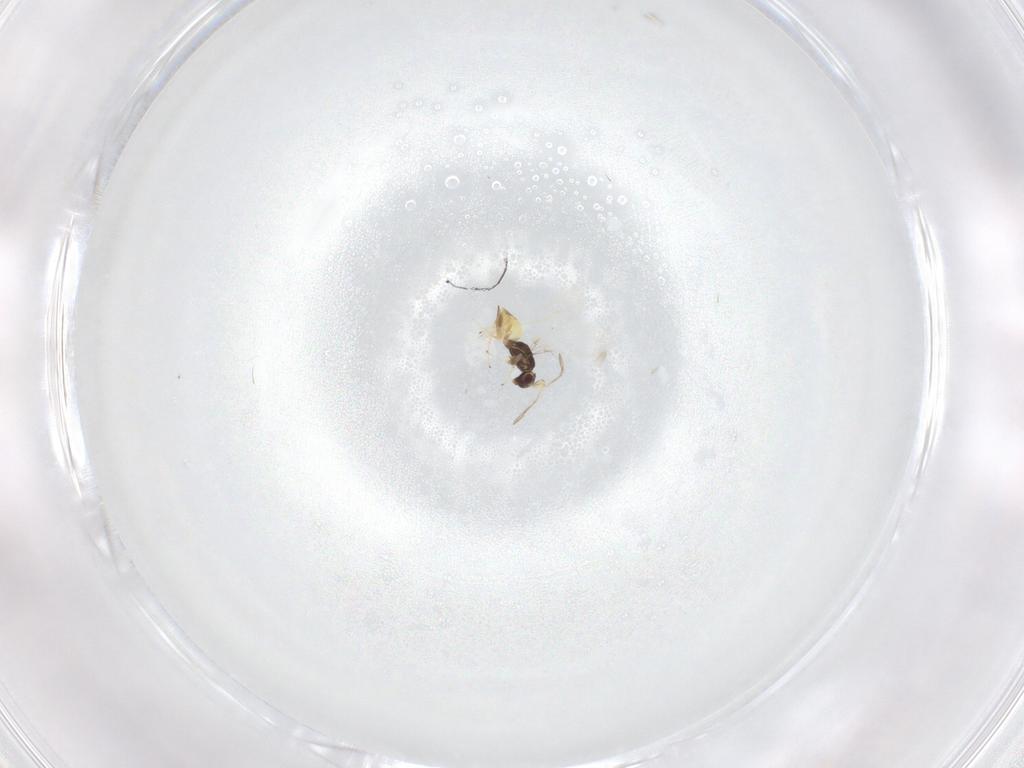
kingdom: Animalia
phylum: Arthropoda
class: Insecta
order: Hymenoptera
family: Mymaridae
